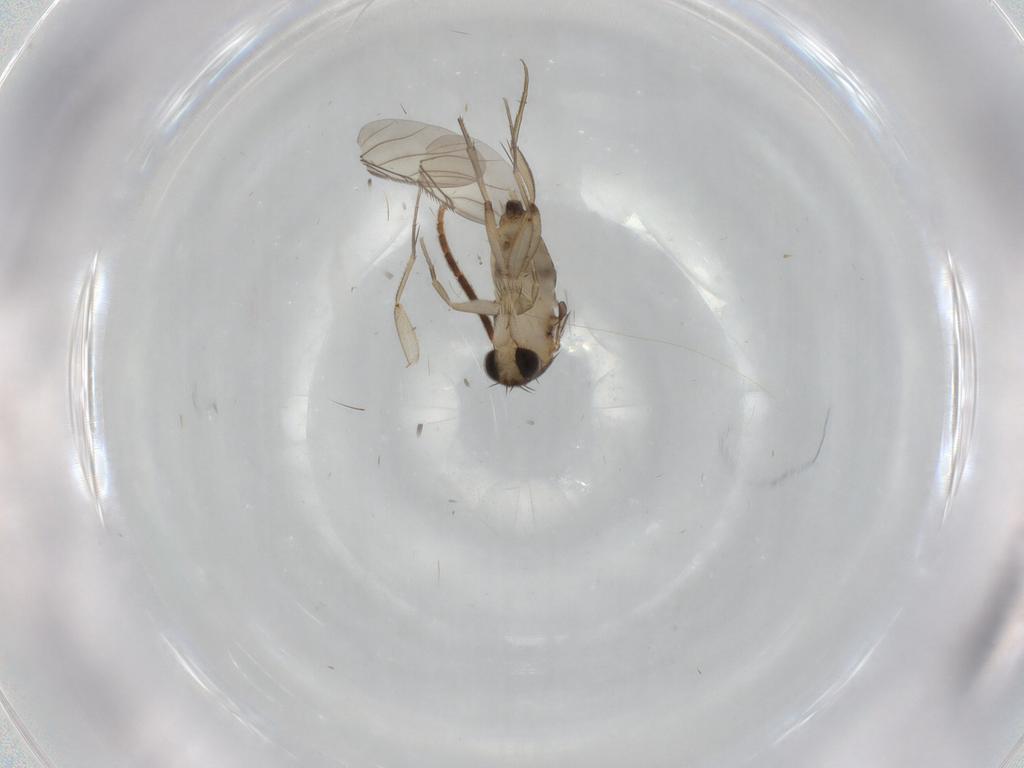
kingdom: Animalia
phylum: Arthropoda
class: Insecta
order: Diptera
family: Phoridae
